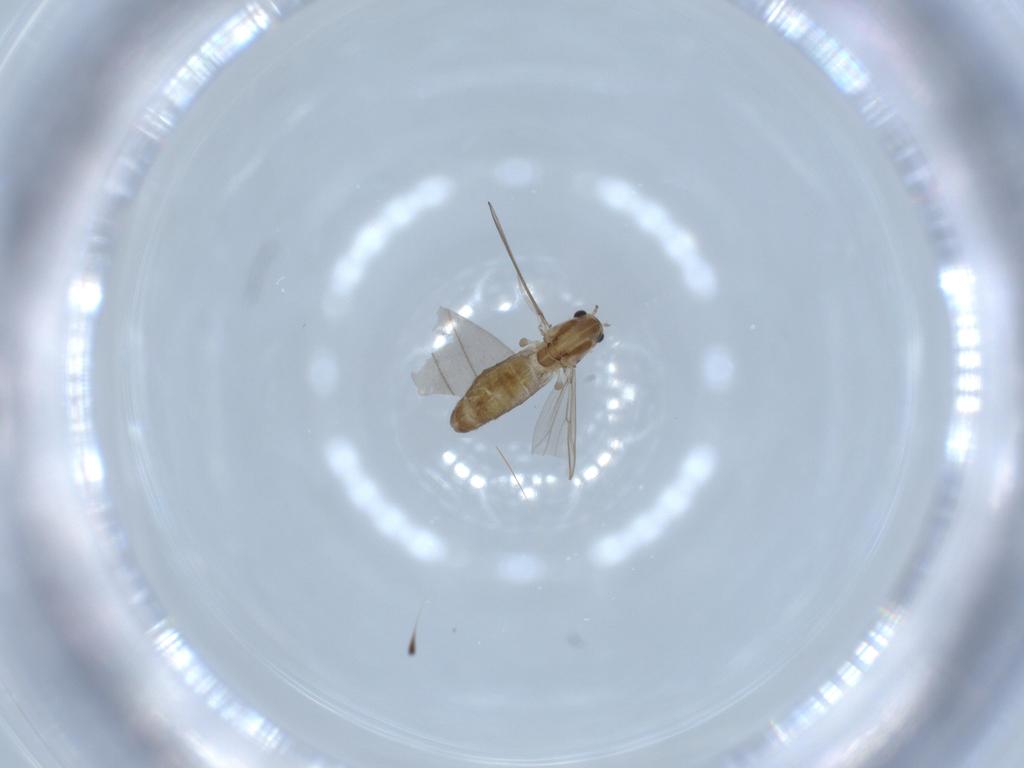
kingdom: Animalia
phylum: Arthropoda
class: Insecta
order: Diptera
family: Chironomidae
